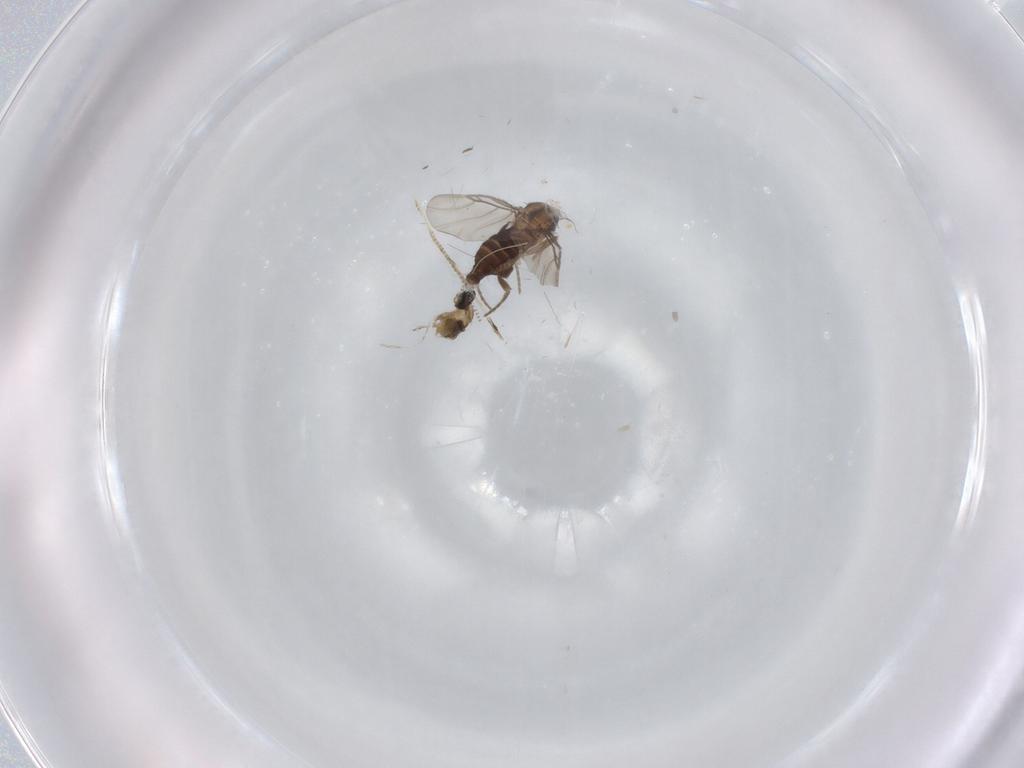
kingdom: Animalia
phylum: Arthropoda
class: Insecta
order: Diptera
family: Cecidomyiidae
